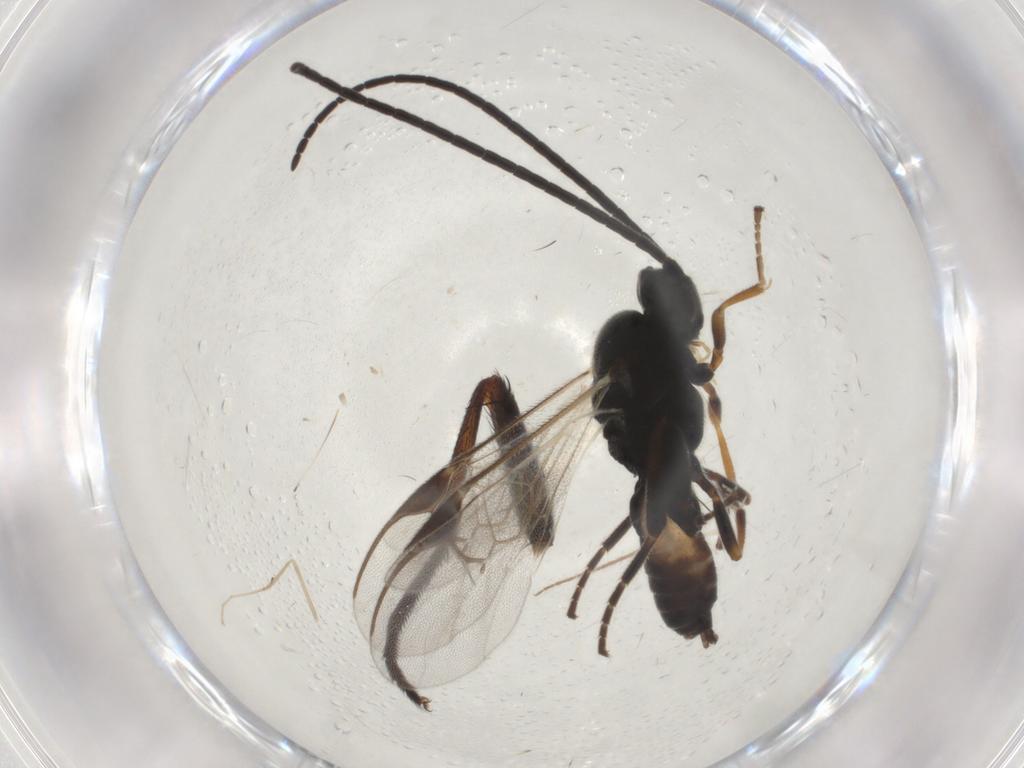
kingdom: Animalia
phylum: Arthropoda
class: Insecta
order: Hymenoptera
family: Braconidae
